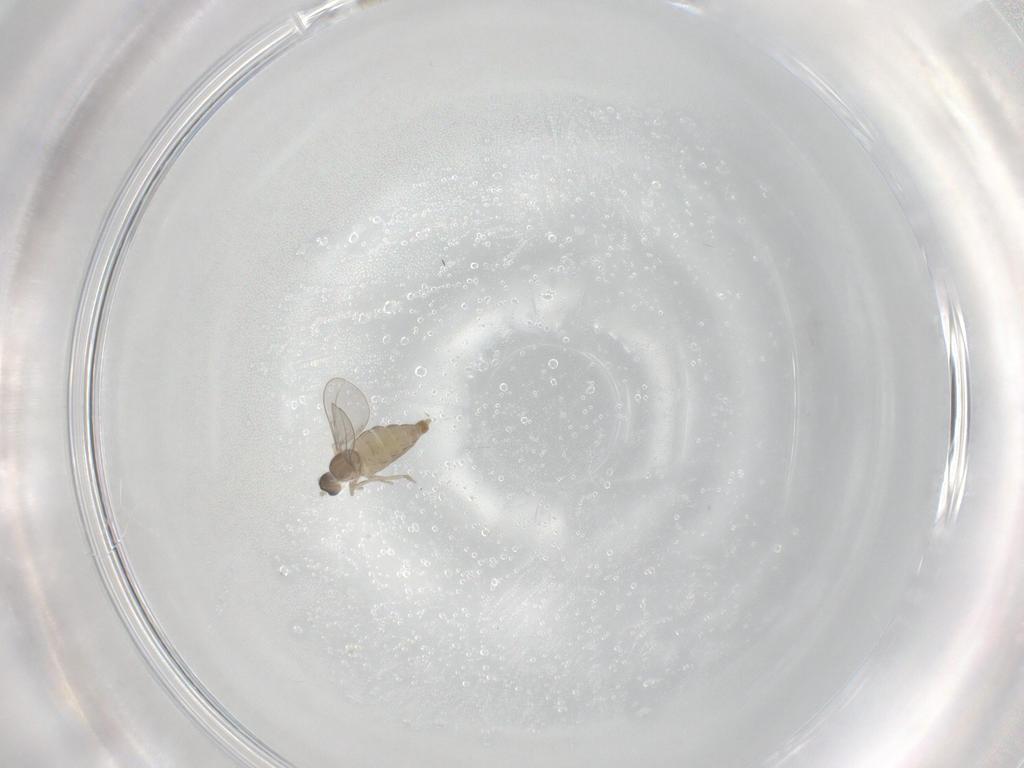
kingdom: Animalia
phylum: Arthropoda
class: Insecta
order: Diptera
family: Cecidomyiidae
